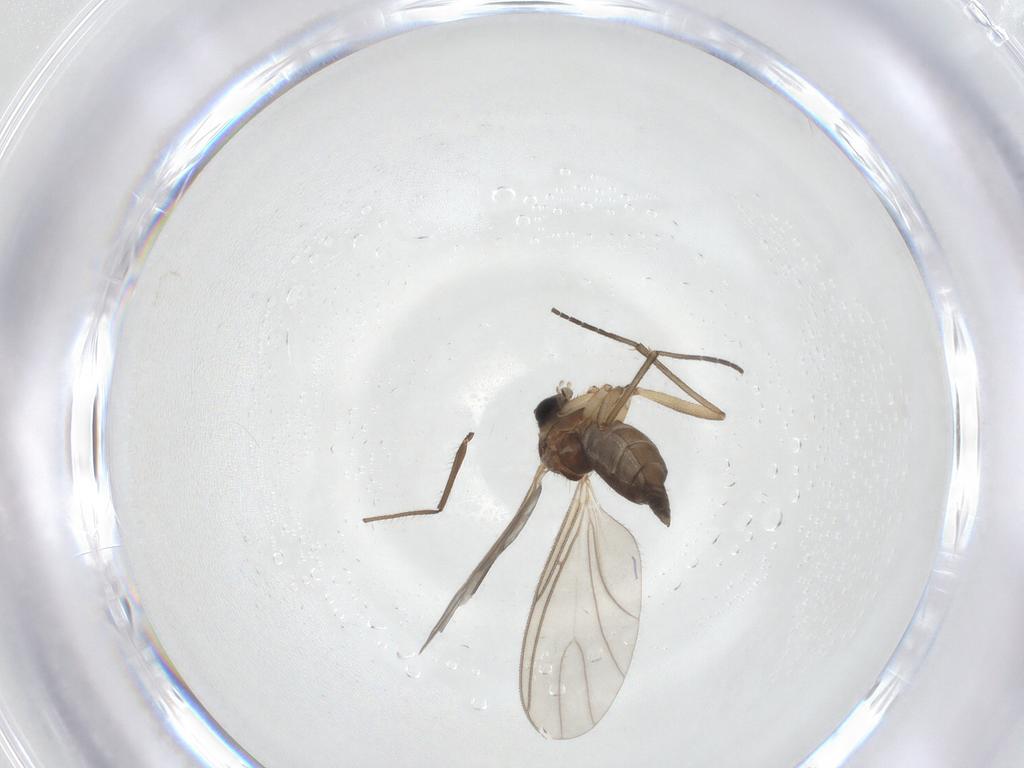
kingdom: Animalia
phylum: Arthropoda
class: Insecta
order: Diptera
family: Sciaridae
